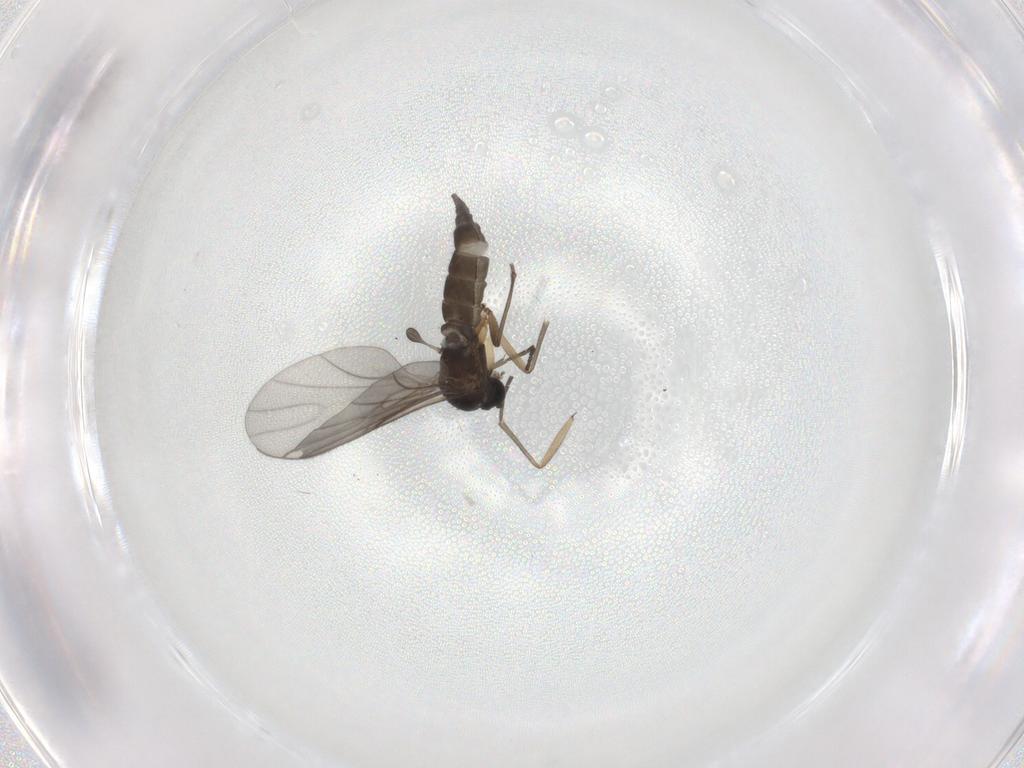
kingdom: Animalia
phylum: Arthropoda
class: Insecta
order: Diptera
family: Sciaridae
